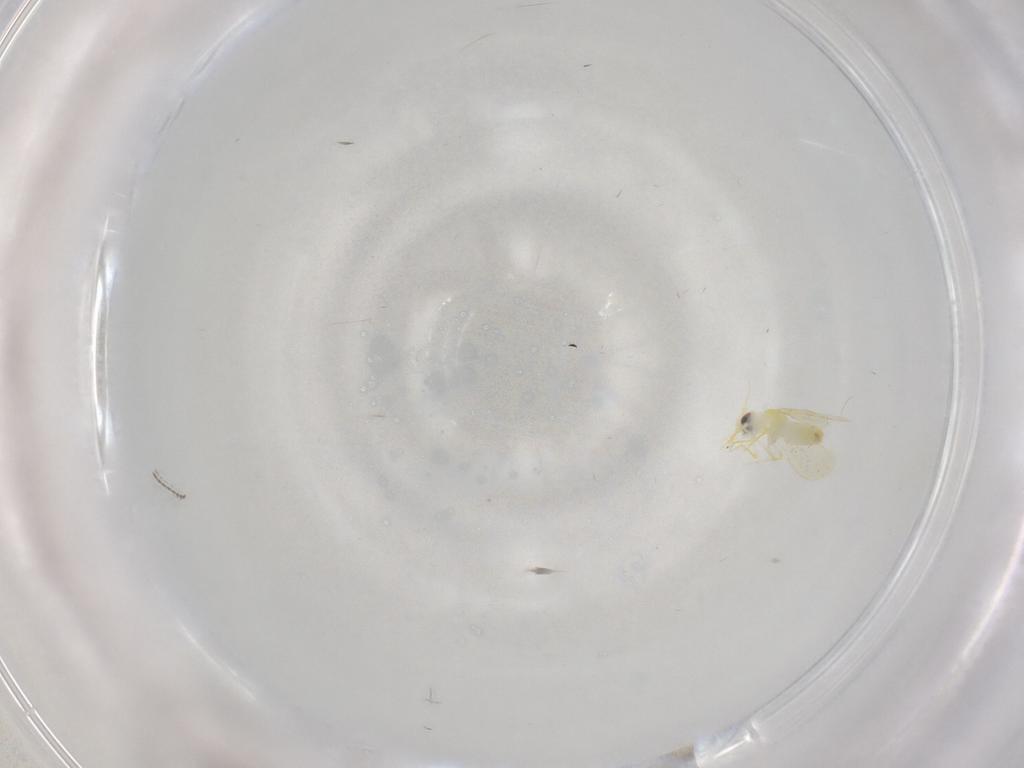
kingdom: Animalia
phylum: Arthropoda
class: Insecta
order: Hemiptera
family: Aleyrodidae
